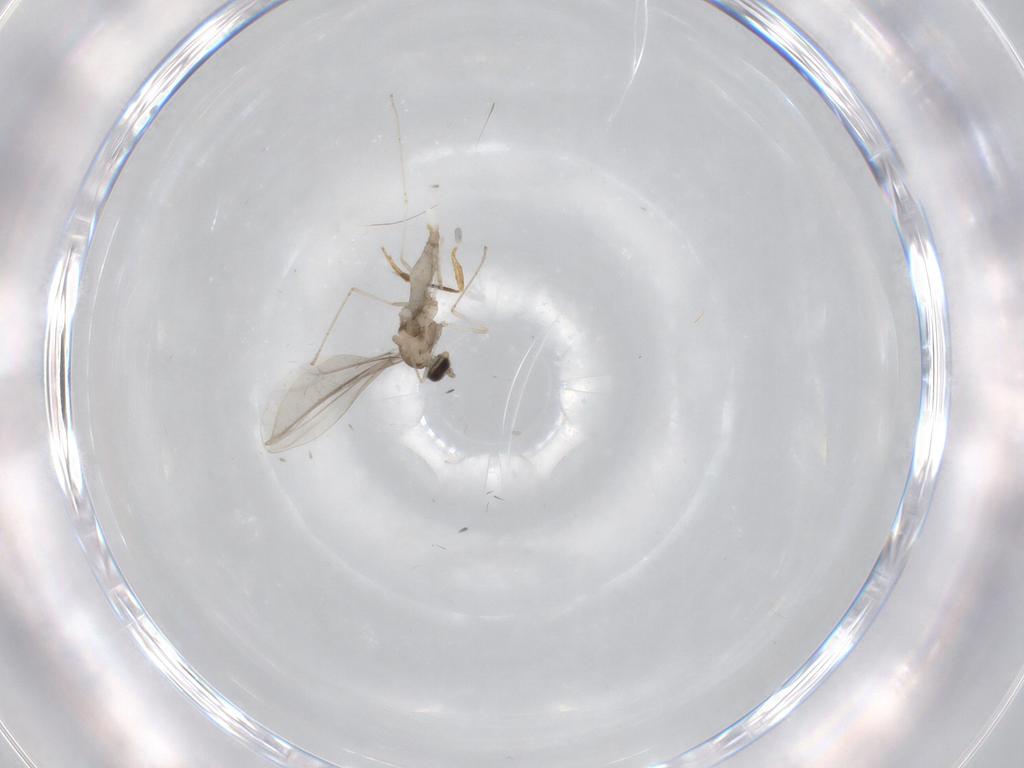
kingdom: Animalia
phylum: Arthropoda
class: Insecta
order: Diptera
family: Cecidomyiidae
